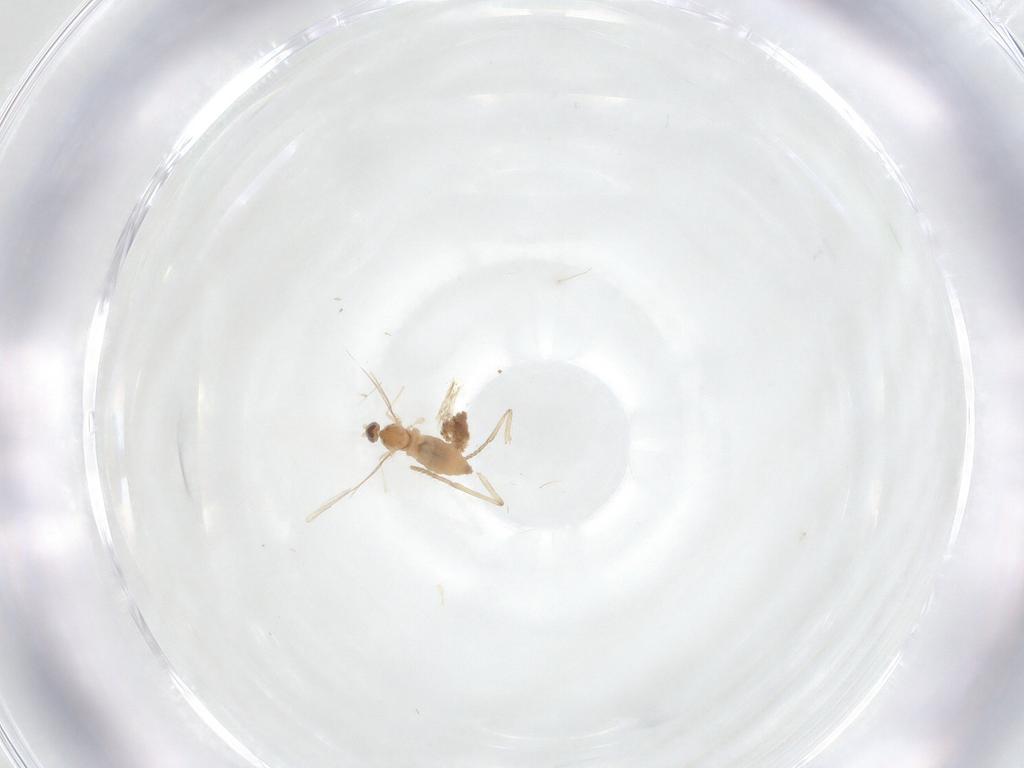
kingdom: Animalia
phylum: Arthropoda
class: Insecta
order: Diptera
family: Cecidomyiidae
